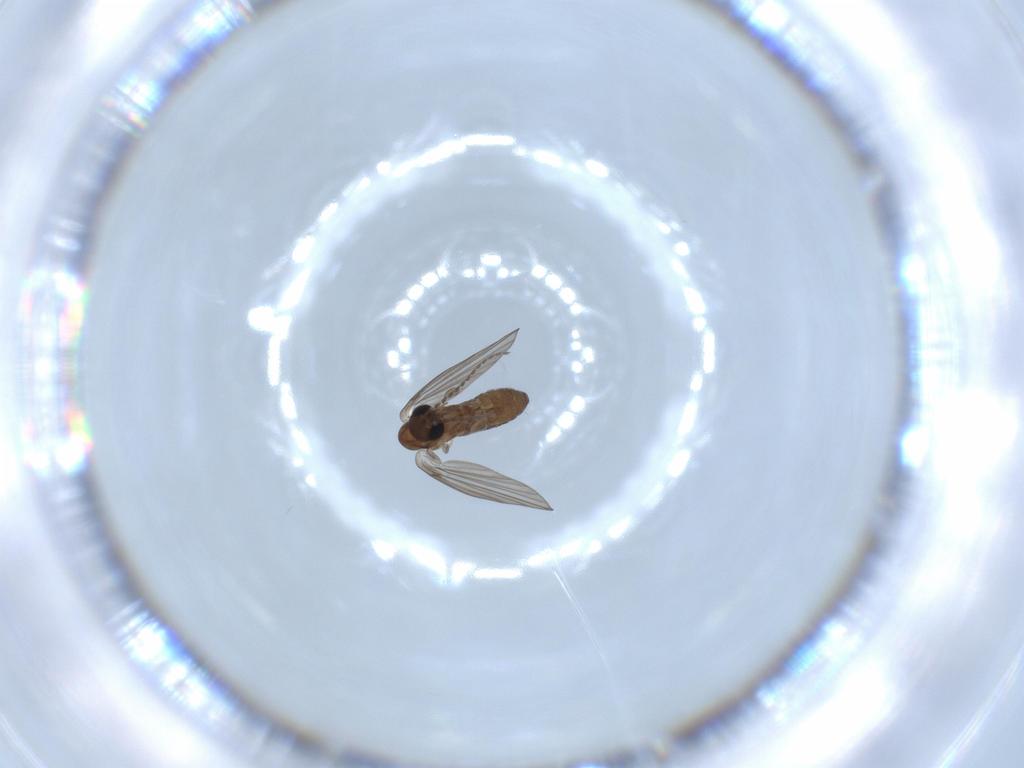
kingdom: Animalia
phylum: Arthropoda
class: Insecta
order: Diptera
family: Psychodidae
